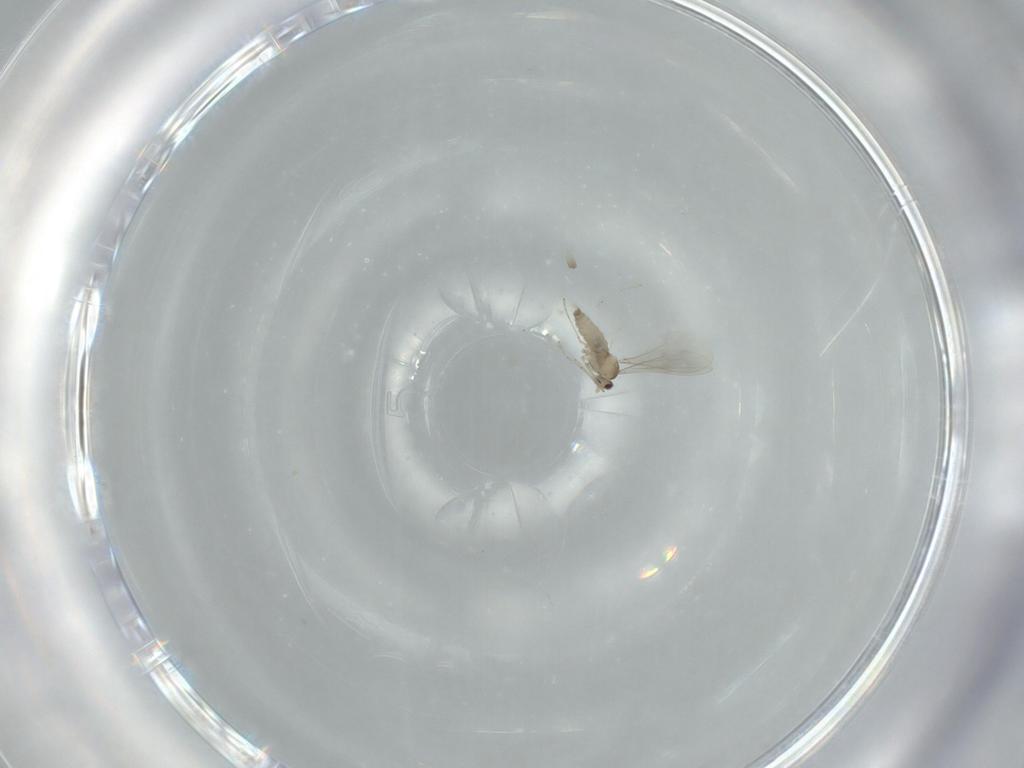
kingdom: Animalia
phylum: Arthropoda
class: Insecta
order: Diptera
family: Cecidomyiidae
